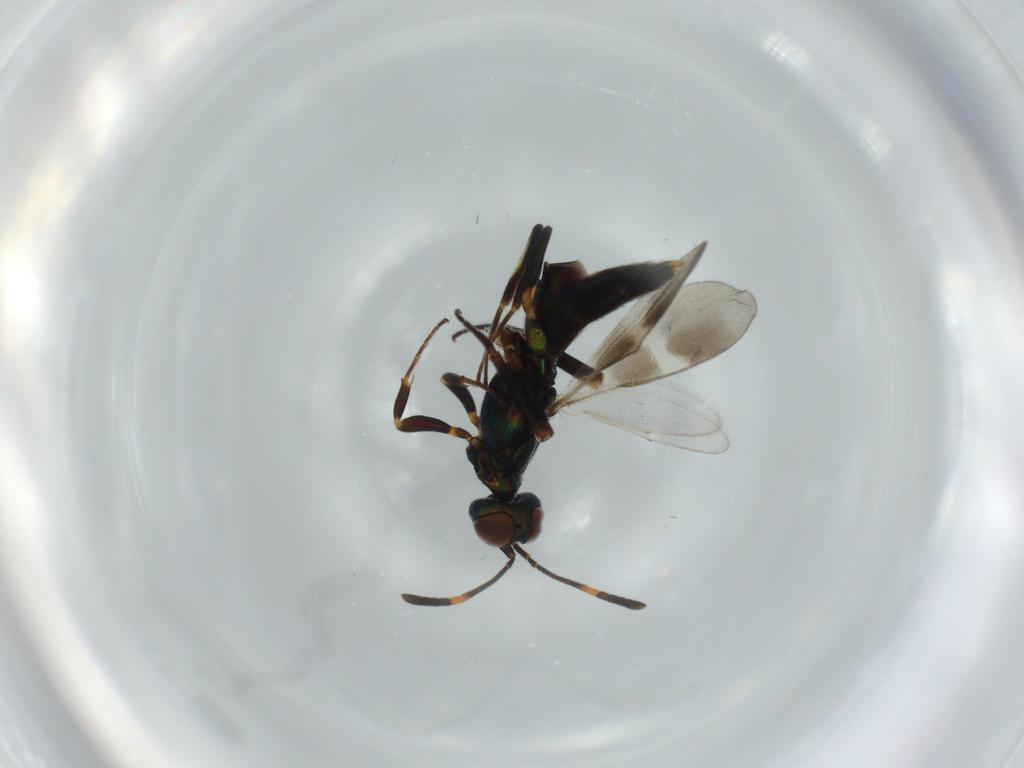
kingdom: Animalia
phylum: Arthropoda
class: Insecta
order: Hymenoptera
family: Eupelmidae
